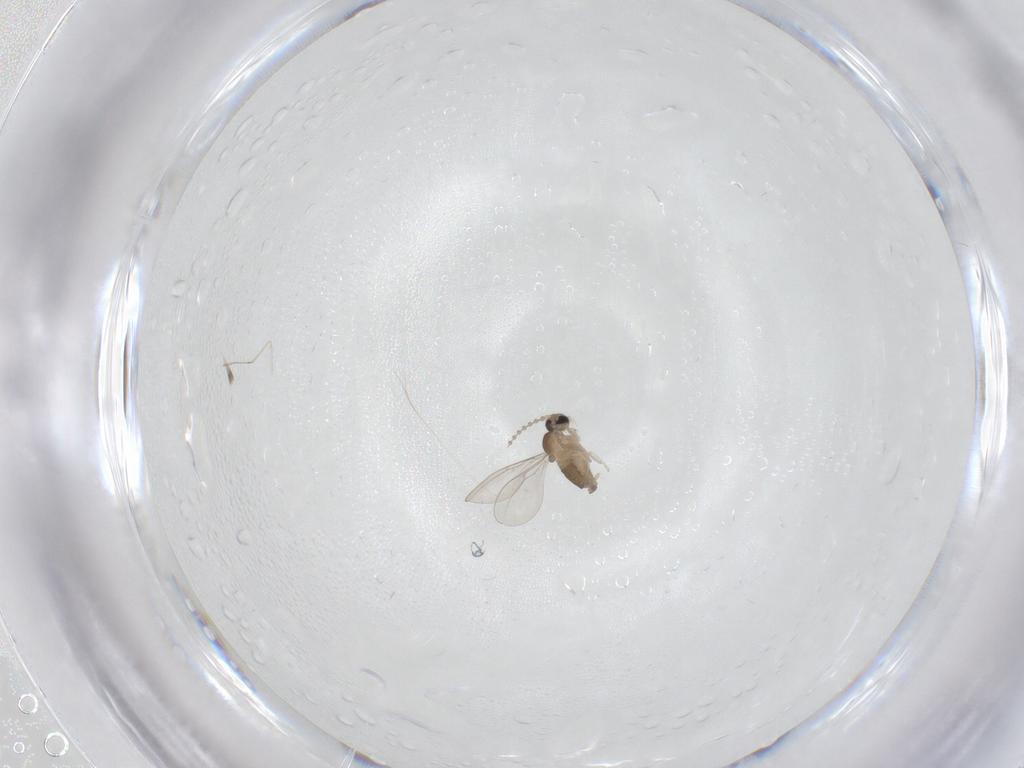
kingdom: Animalia
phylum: Arthropoda
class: Insecta
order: Diptera
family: Cecidomyiidae
